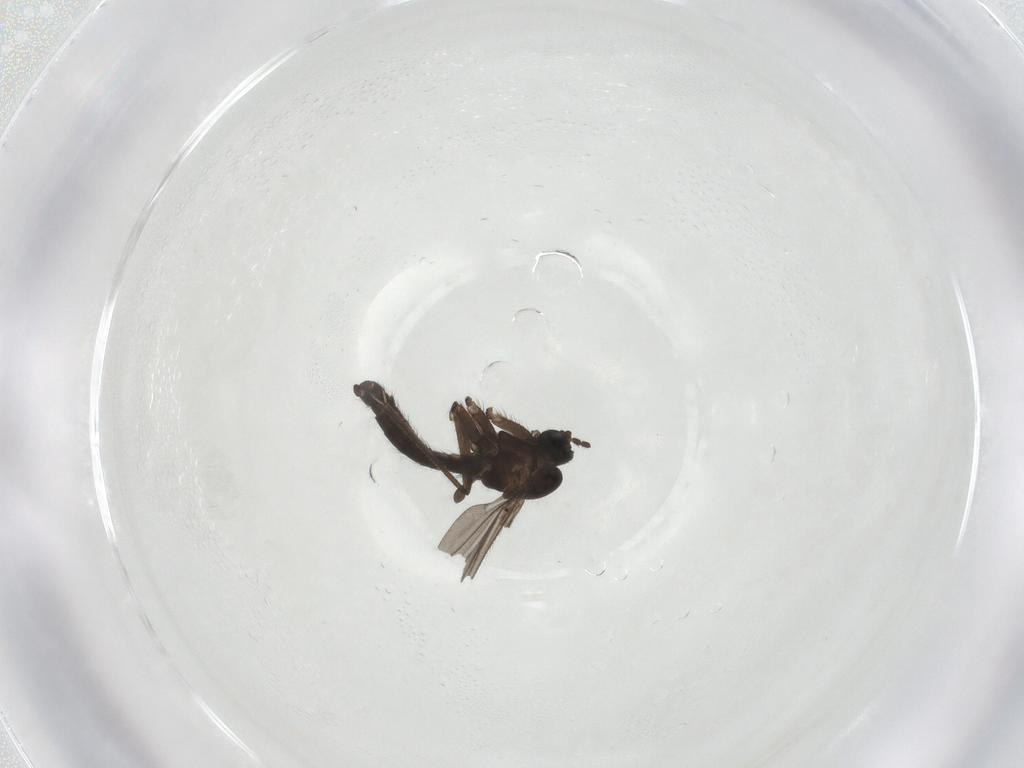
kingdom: Animalia
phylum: Arthropoda
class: Insecta
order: Diptera
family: Sciaridae
